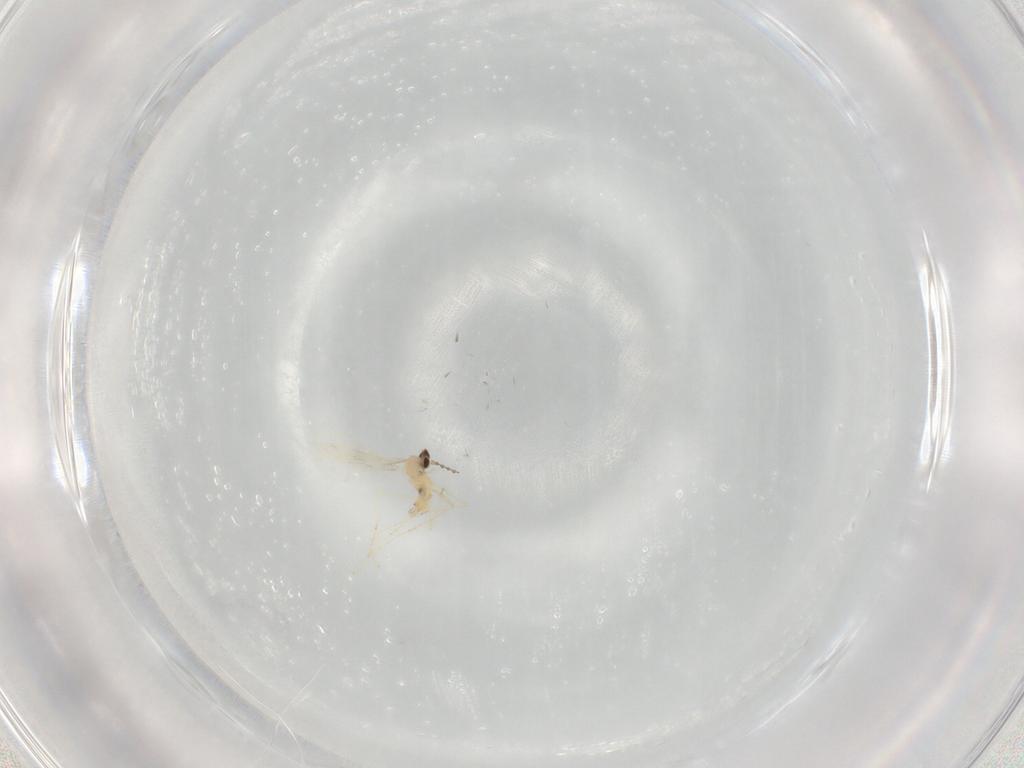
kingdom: Animalia
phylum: Arthropoda
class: Insecta
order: Diptera
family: Cecidomyiidae
